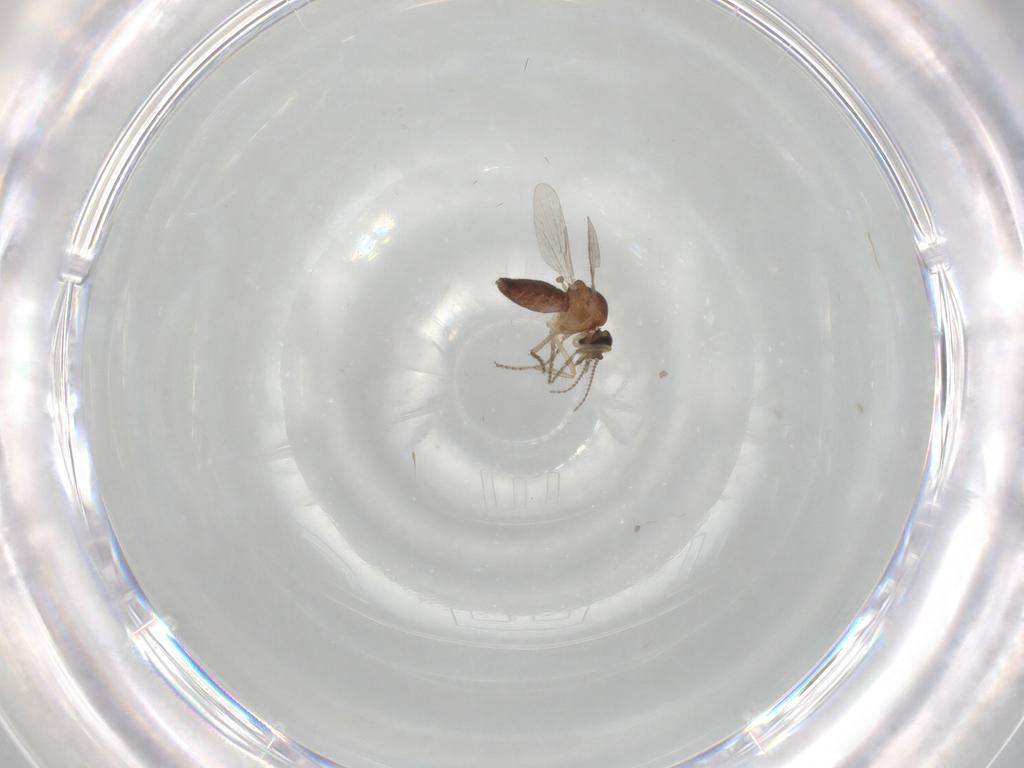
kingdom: Animalia
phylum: Arthropoda
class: Insecta
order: Diptera
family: Ceratopogonidae
